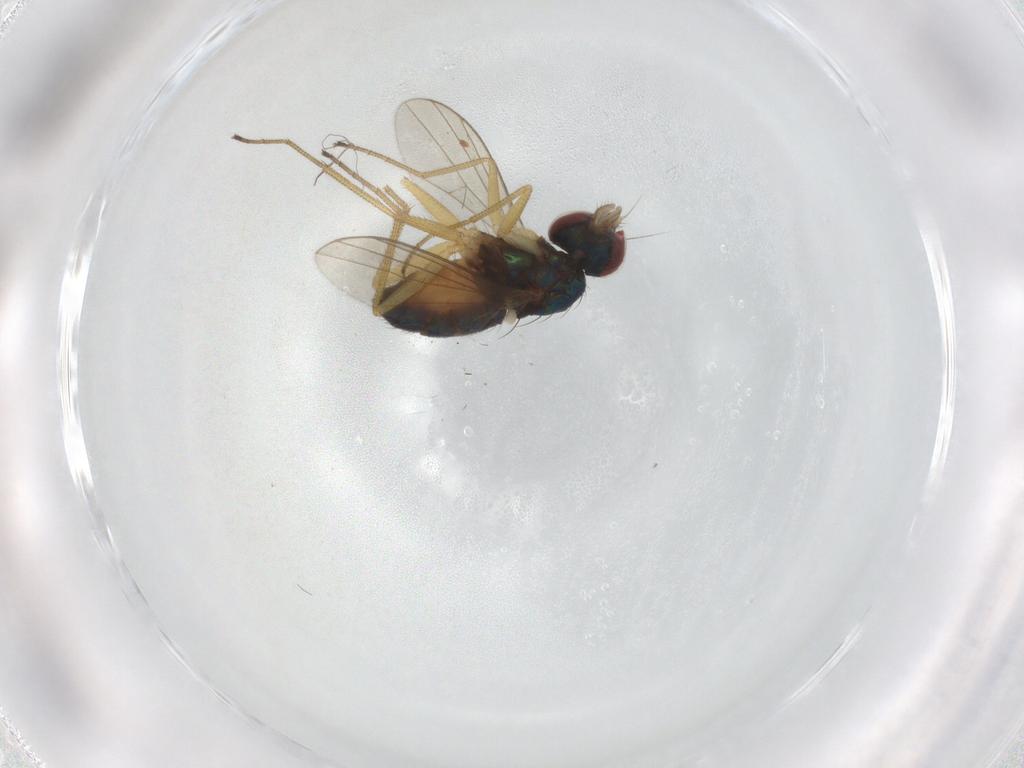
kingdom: Animalia
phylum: Arthropoda
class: Insecta
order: Diptera
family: Dolichopodidae
